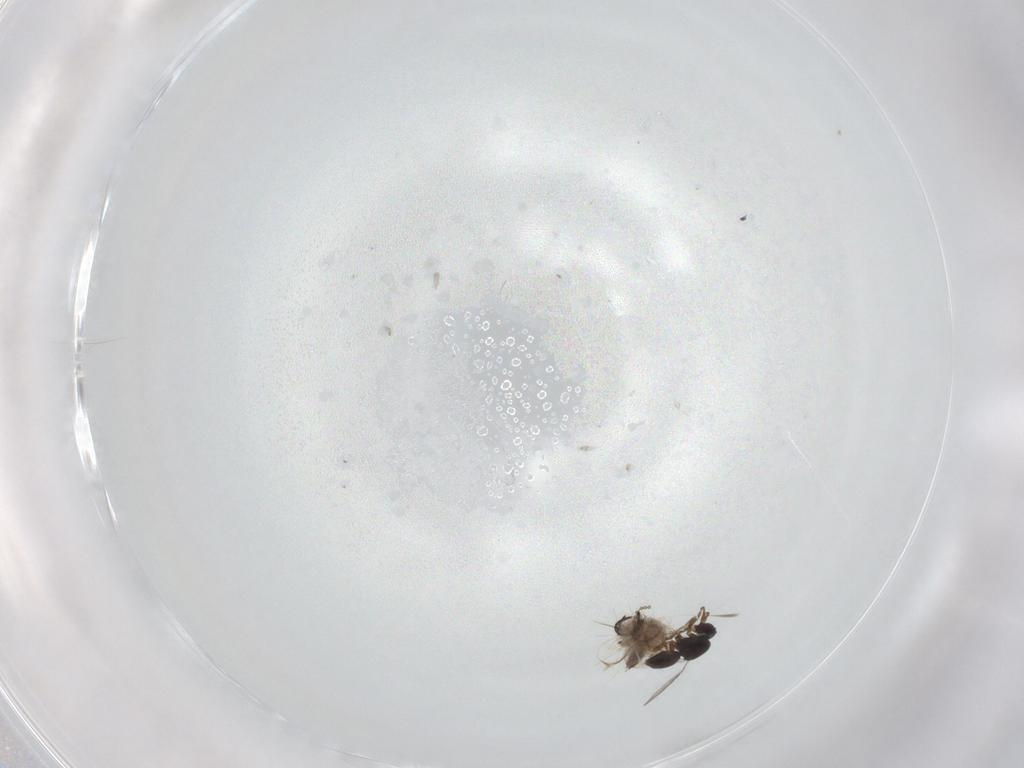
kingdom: Animalia
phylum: Arthropoda
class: Insecta
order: Hymenoptera
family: Ichneumonidae
